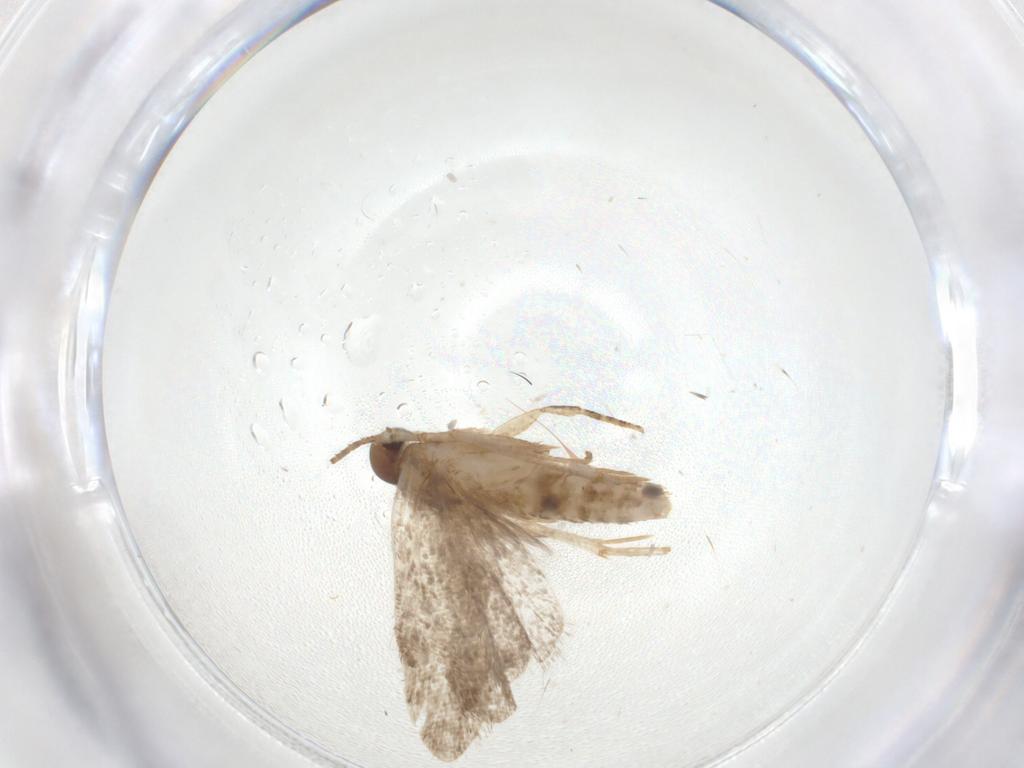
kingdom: Animalia
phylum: Arthropoda
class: Insecta
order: Lepidoptera
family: Gelechiidae
